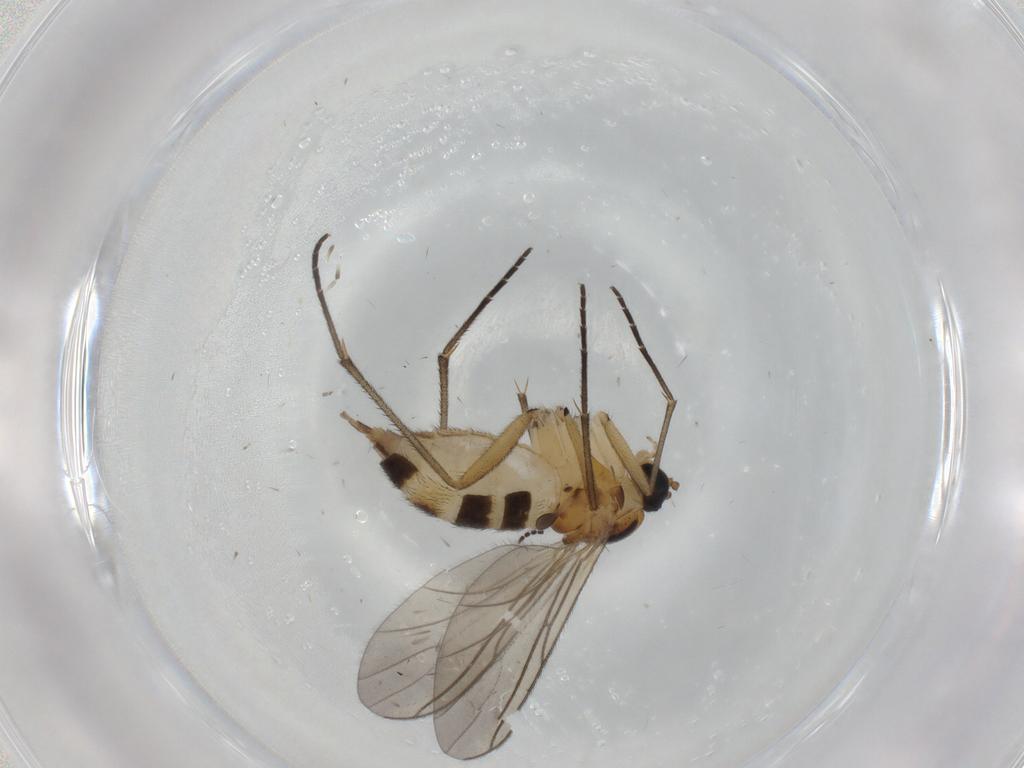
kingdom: Animalia
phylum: Arthropoda
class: Insecta
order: Diptera
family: Sciaridae
